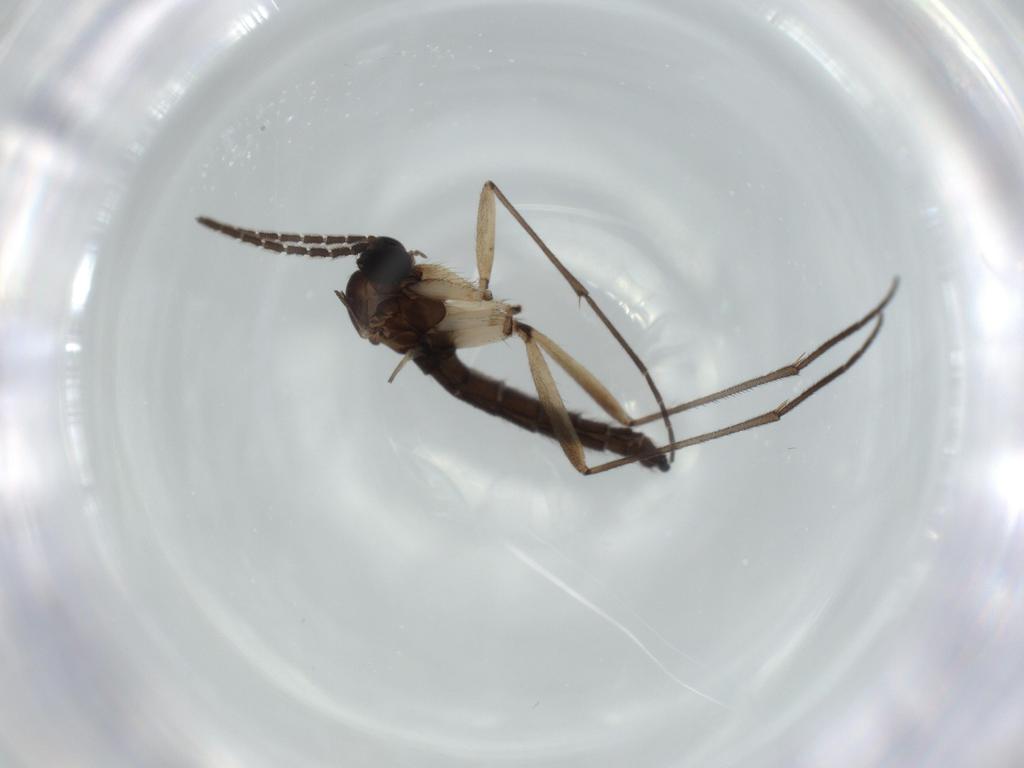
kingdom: Animalia
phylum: Arthropoda
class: Insecta
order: Diptera
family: Sciaridae
